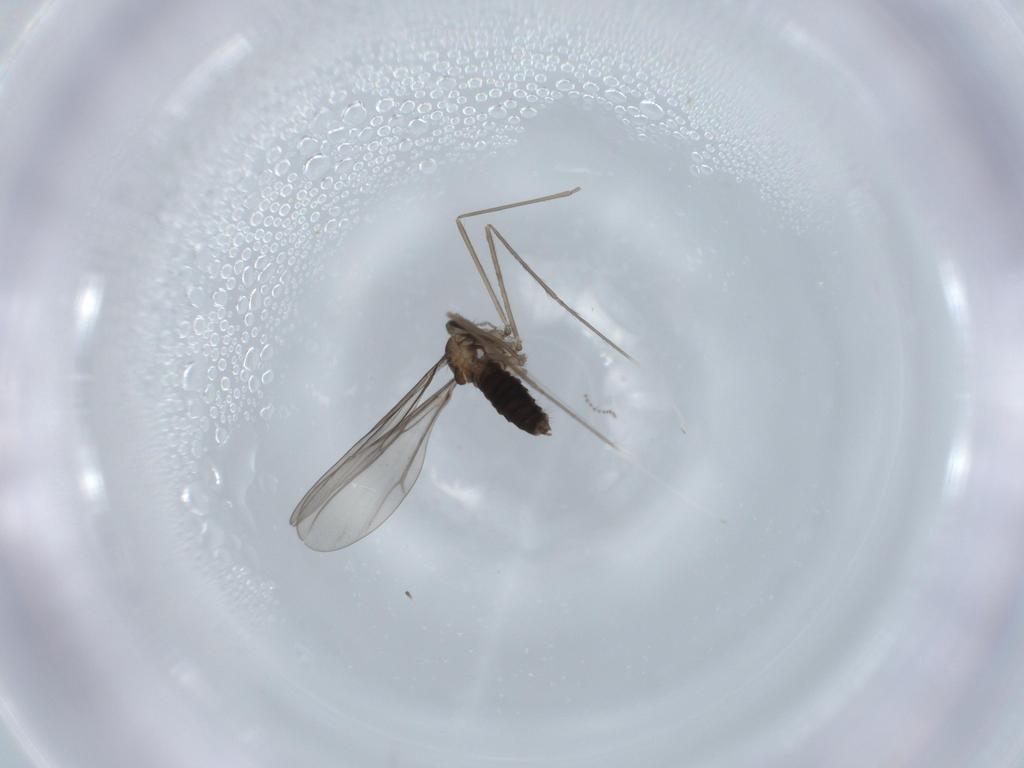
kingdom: Animalia
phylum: Arthropoda
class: Insecta
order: Diptera
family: Cecidomyiidae
